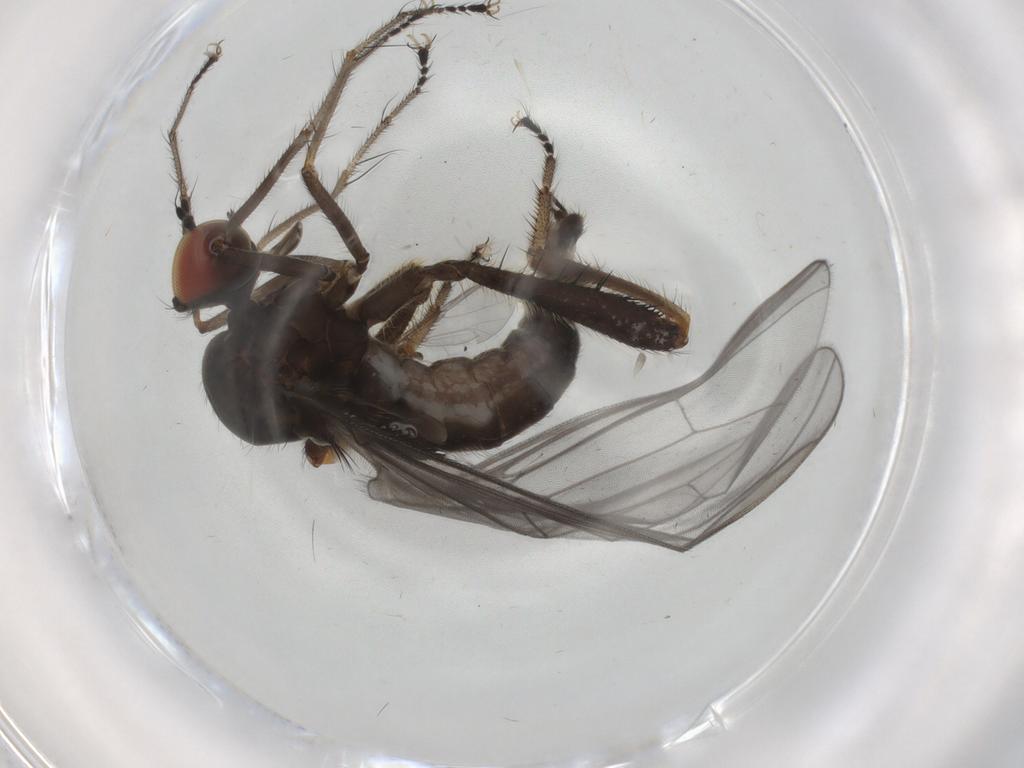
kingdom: Animalia
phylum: Arthropoda
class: Insecta
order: Diptera
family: Hybotidae
